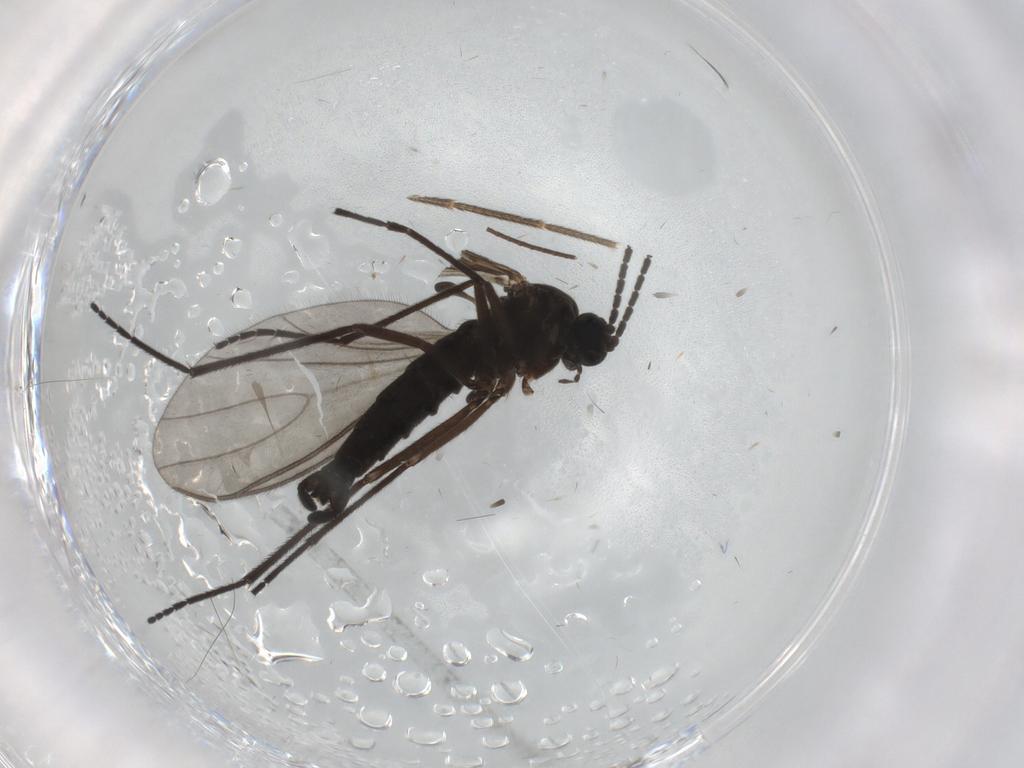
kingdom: Animalia
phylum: Arthropoda
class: Insecta
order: Diptera
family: Sciaridae
